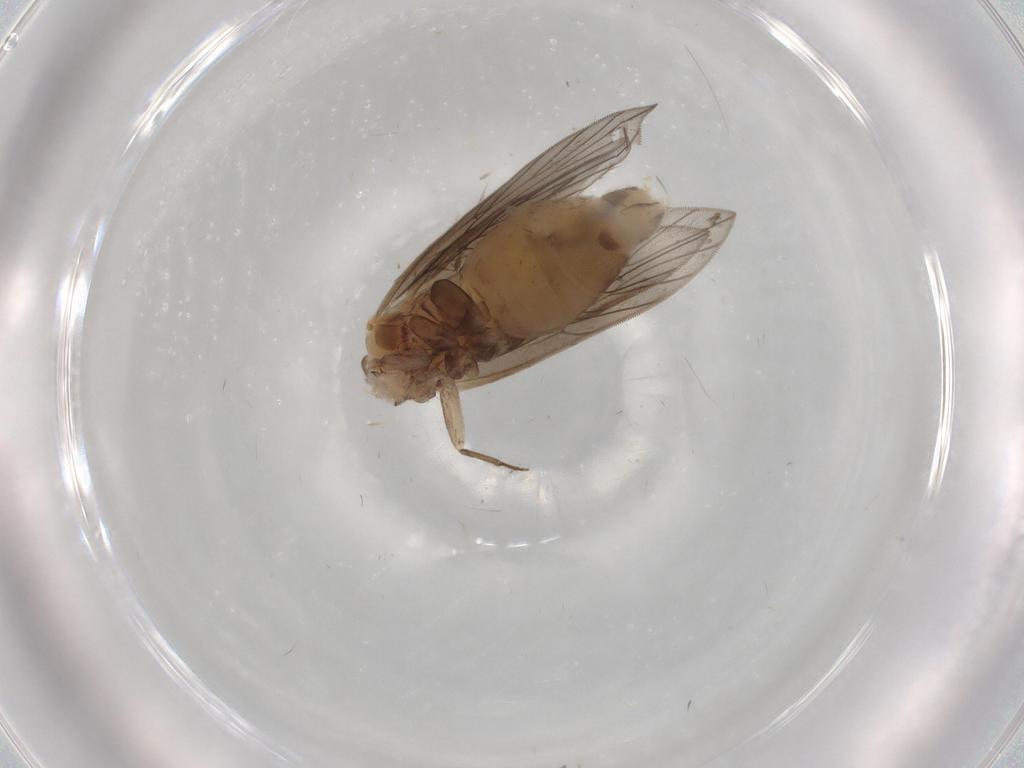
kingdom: Animalia
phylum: Arthropoda
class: Insecta
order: Psocodea
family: Lepidopsocidae
